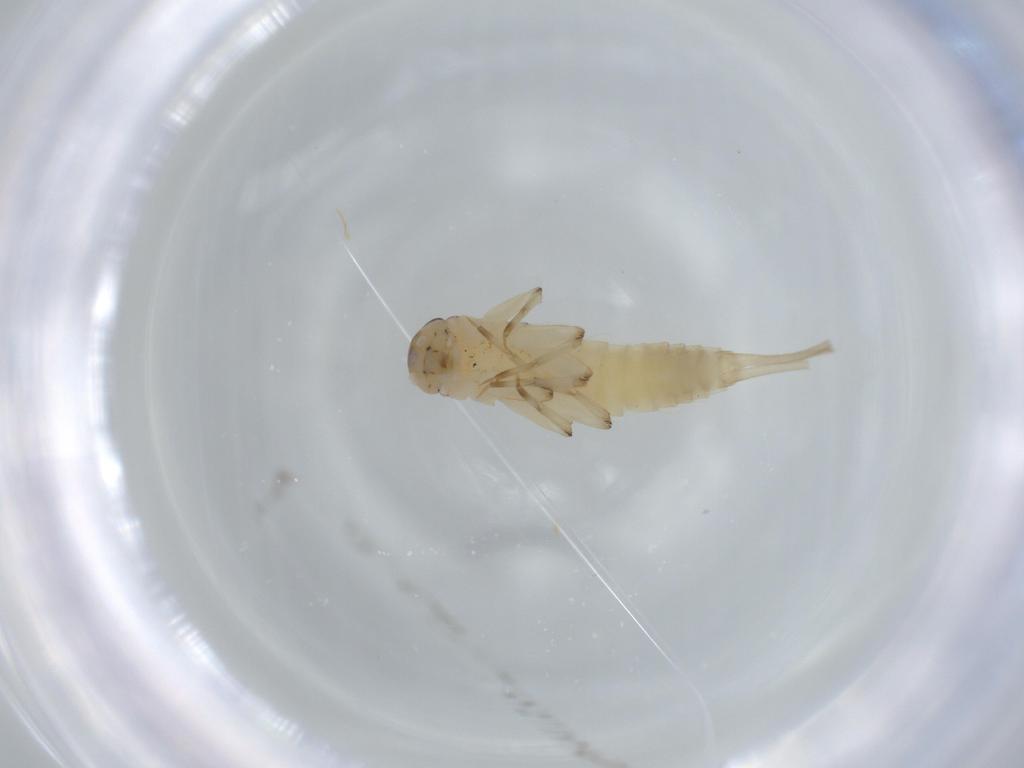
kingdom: Animalia
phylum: Arthropoda
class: Insecta
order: Ephemeroptera
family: Baetidae
